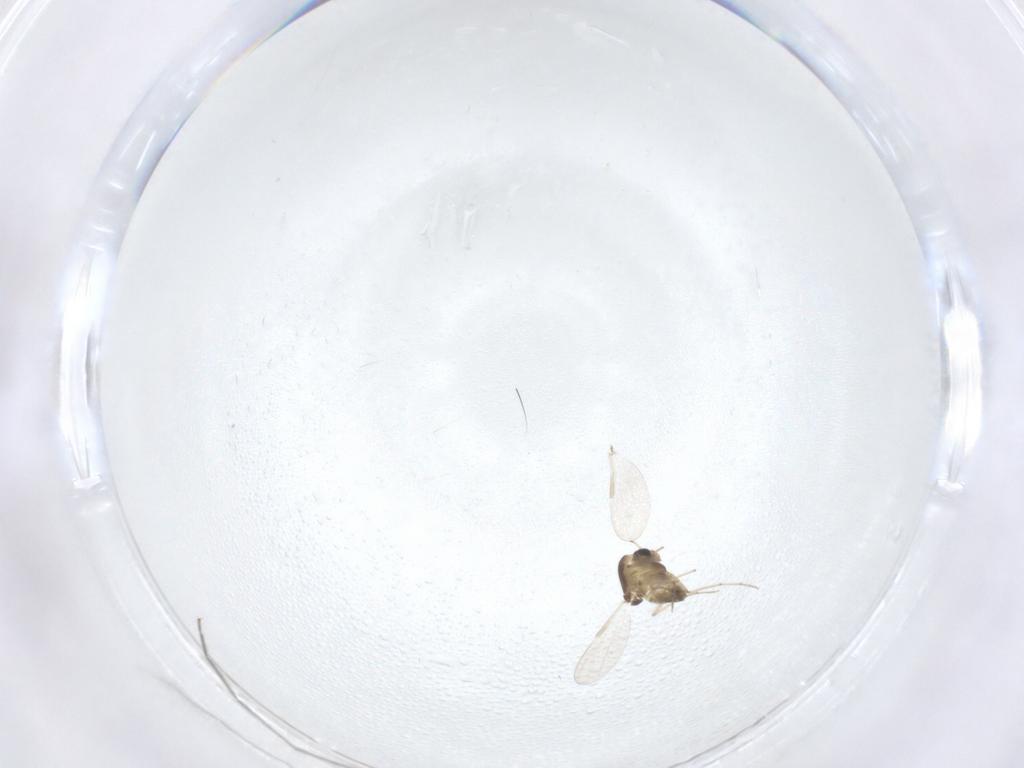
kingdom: Animalia
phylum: Arthropoda
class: Insecta
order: Diptera
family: Chironomidae
